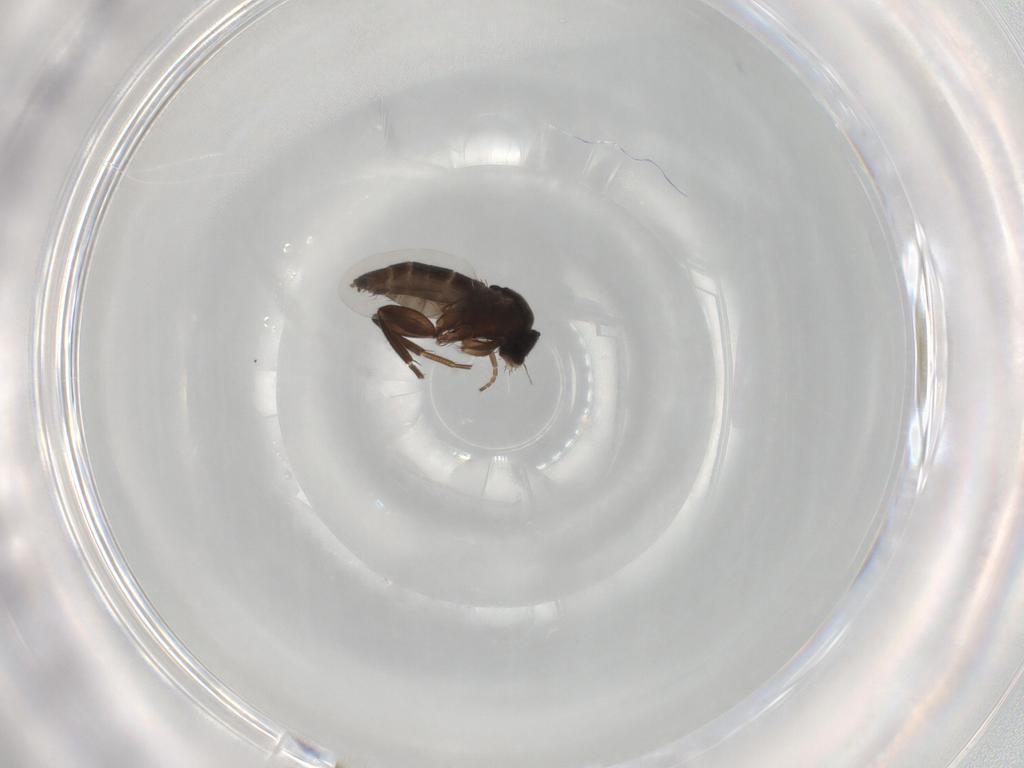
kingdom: Animalia
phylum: Arthropoda
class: Insecta
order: Diptera
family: Phoridae
